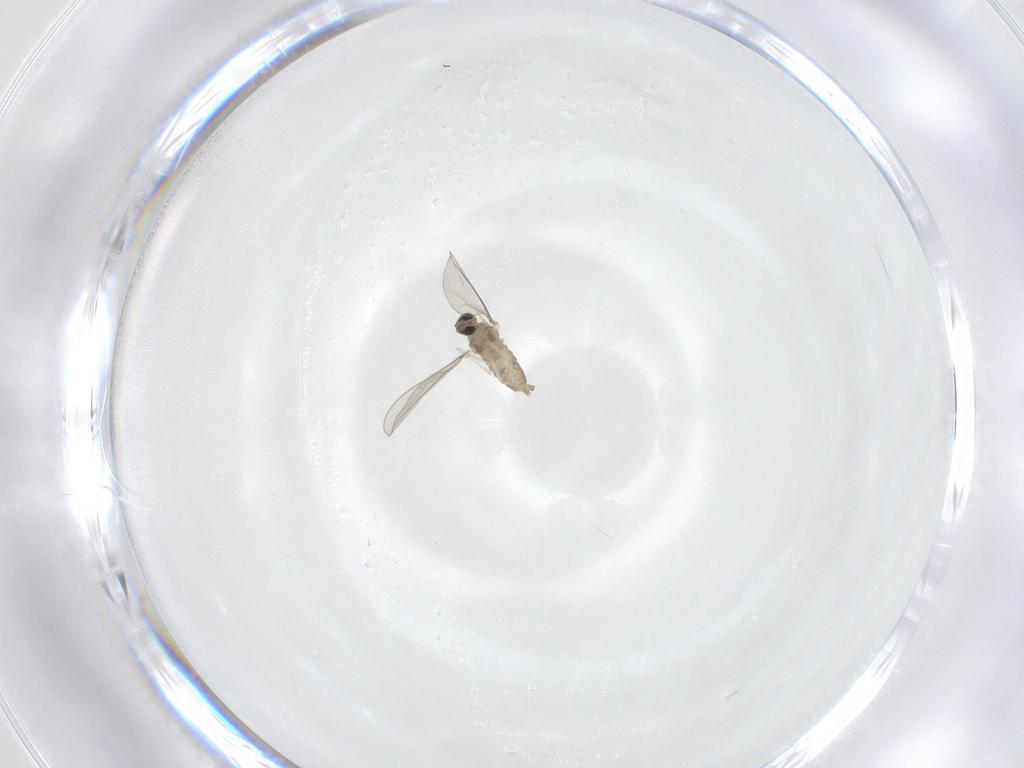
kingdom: Animalia
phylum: Arthropoda
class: Insecta
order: Diptera
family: Cecidomyiidae
